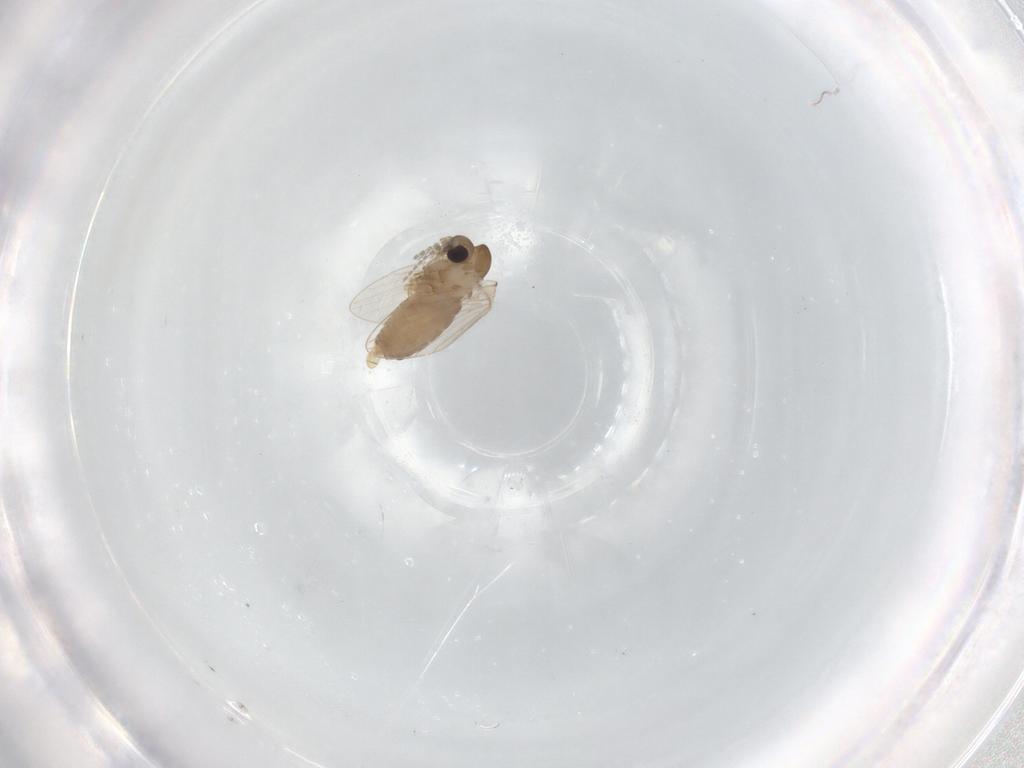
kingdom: Animalia
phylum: Arthropoda
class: Insecta
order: Diptera
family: Psychodidae
